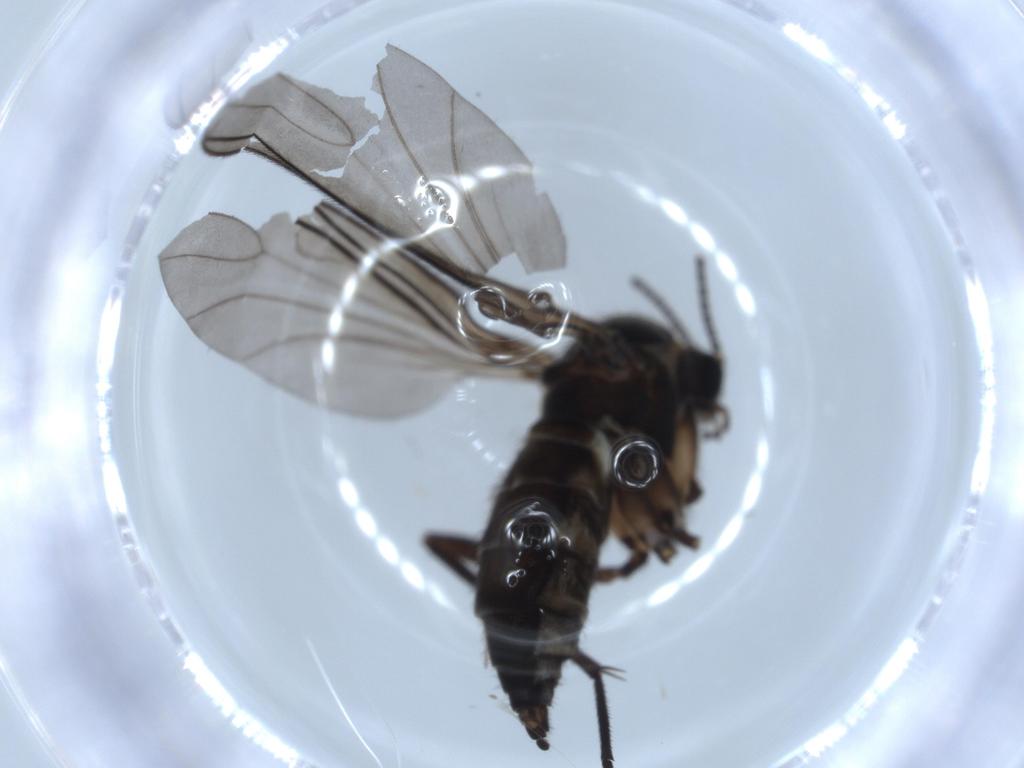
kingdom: Animalia
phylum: Arthropoda
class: Insecta
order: Diptera
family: Sciaridae
